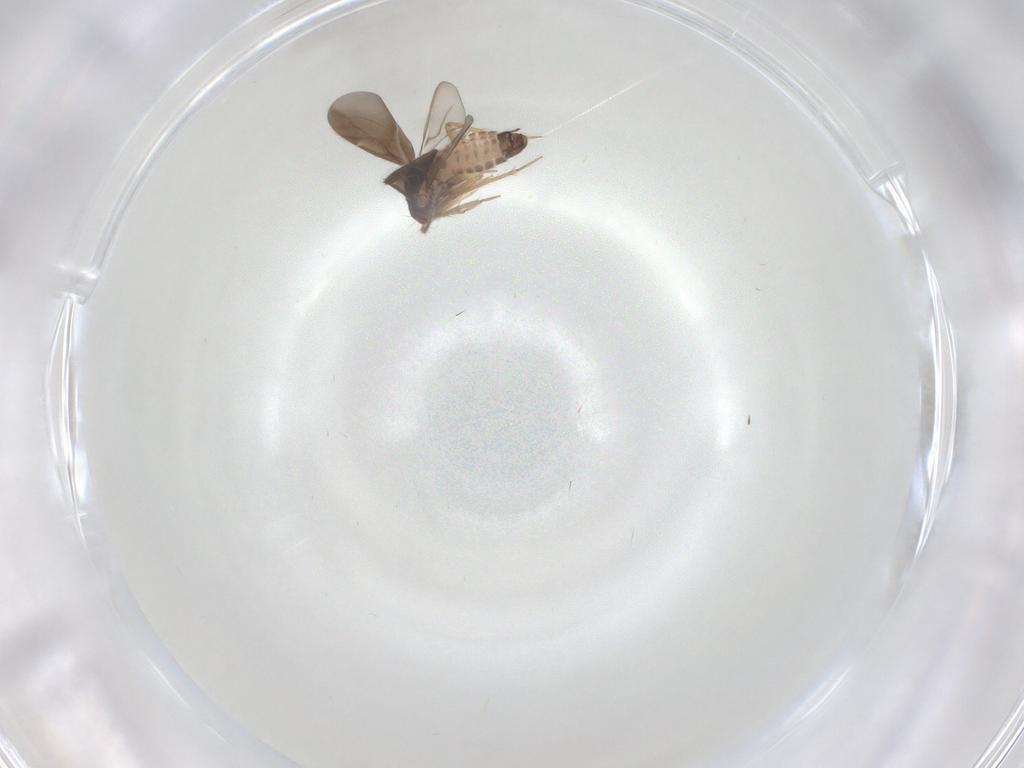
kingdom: Animalia
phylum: Arthropoda
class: Insecta
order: Hemiptera
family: Ceratocombidae
